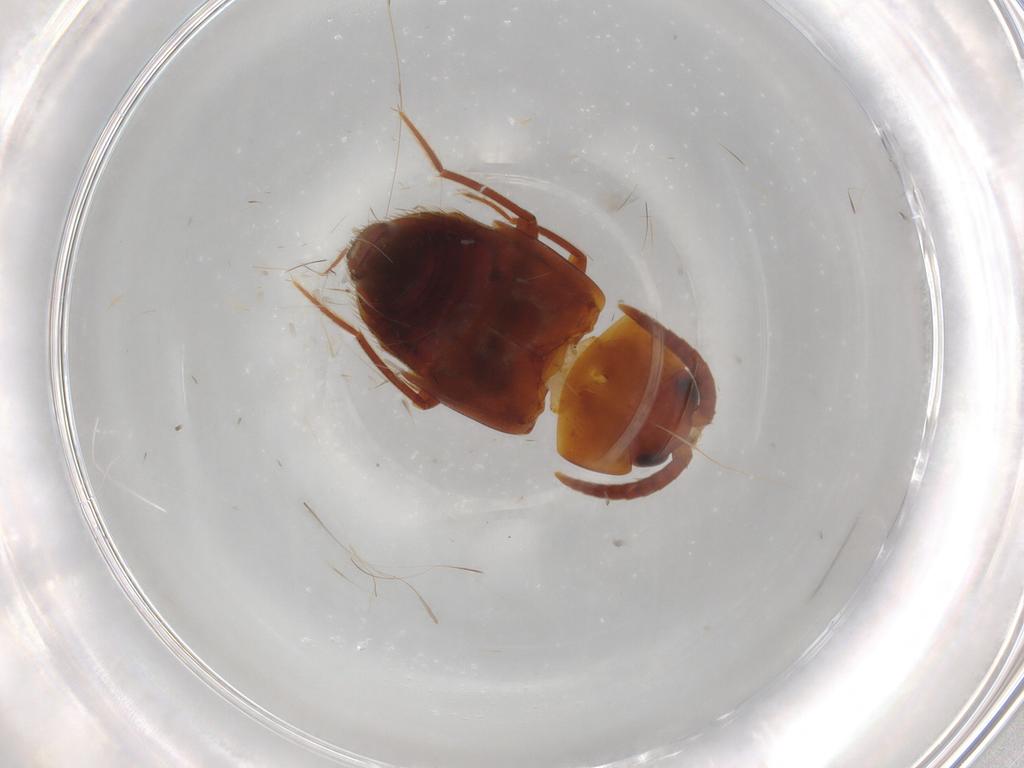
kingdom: Animalia
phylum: Arthropoda
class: Insecta
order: Coleoptera
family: Staphylinidae
